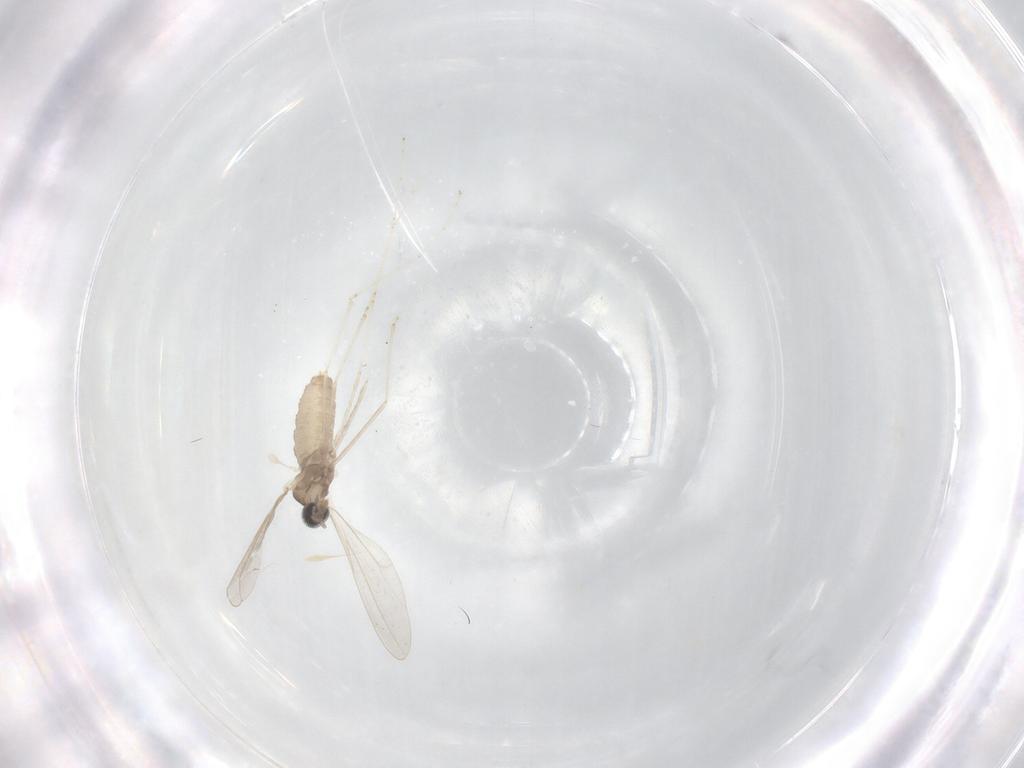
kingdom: Animalia
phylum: Arthropoda
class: Insecta
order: Diptera
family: Cecidomyiidae
